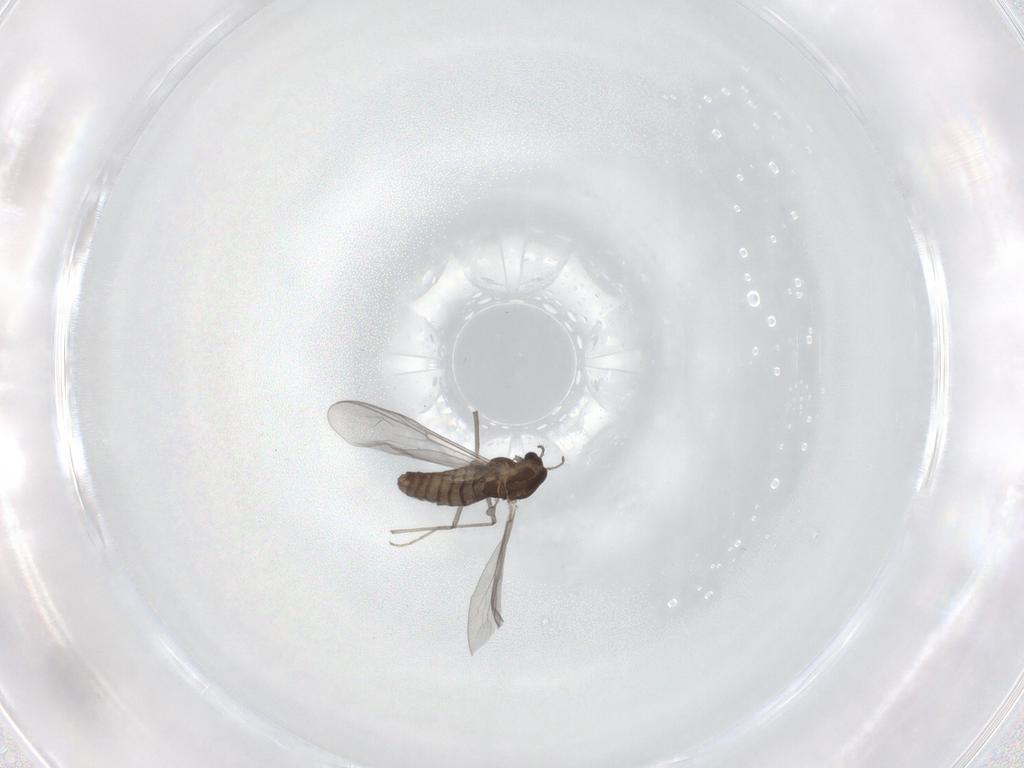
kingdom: Animalia
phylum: Arthropoda
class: Insecta
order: Diptera
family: Chironomidae
